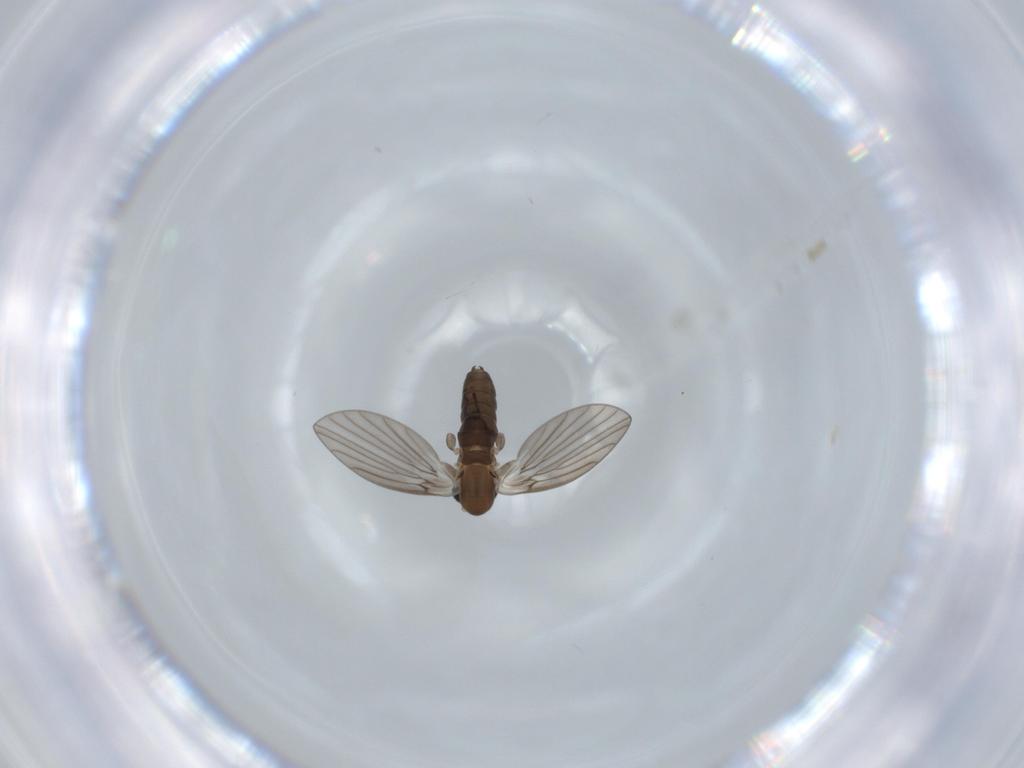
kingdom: Animalia
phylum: Arthropoda
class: Insecta
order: Diptera
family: Psychodidae
